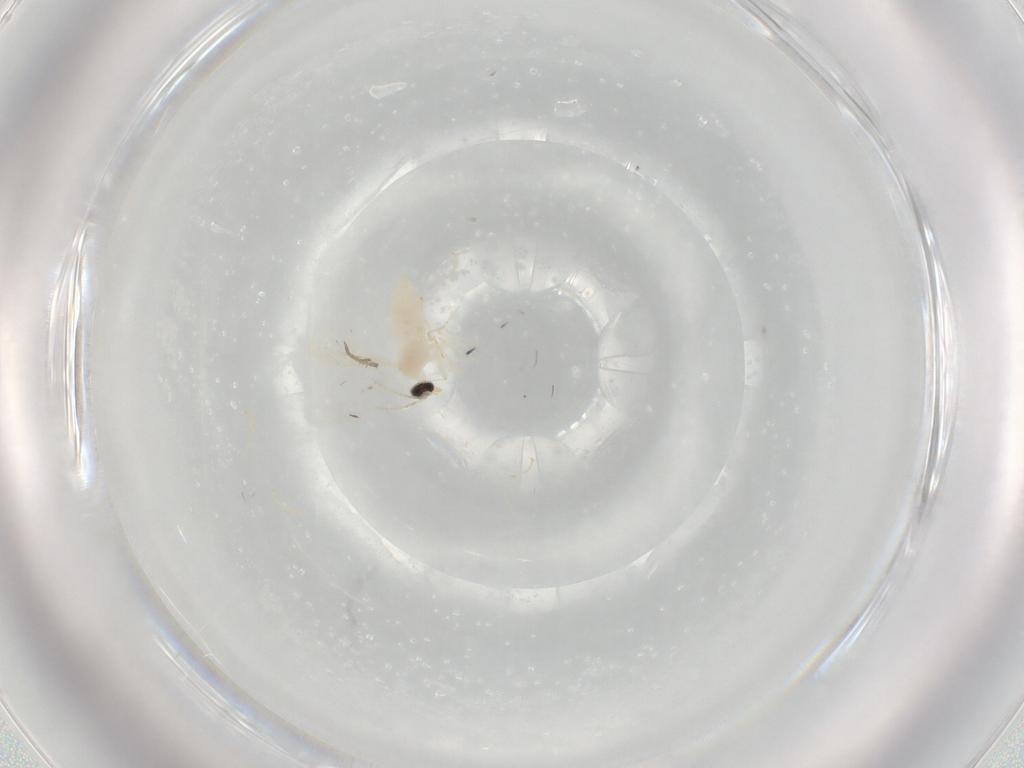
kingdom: Animalia
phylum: Arthropoda
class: Insecta
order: Diptera
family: Cecidomyiidae
